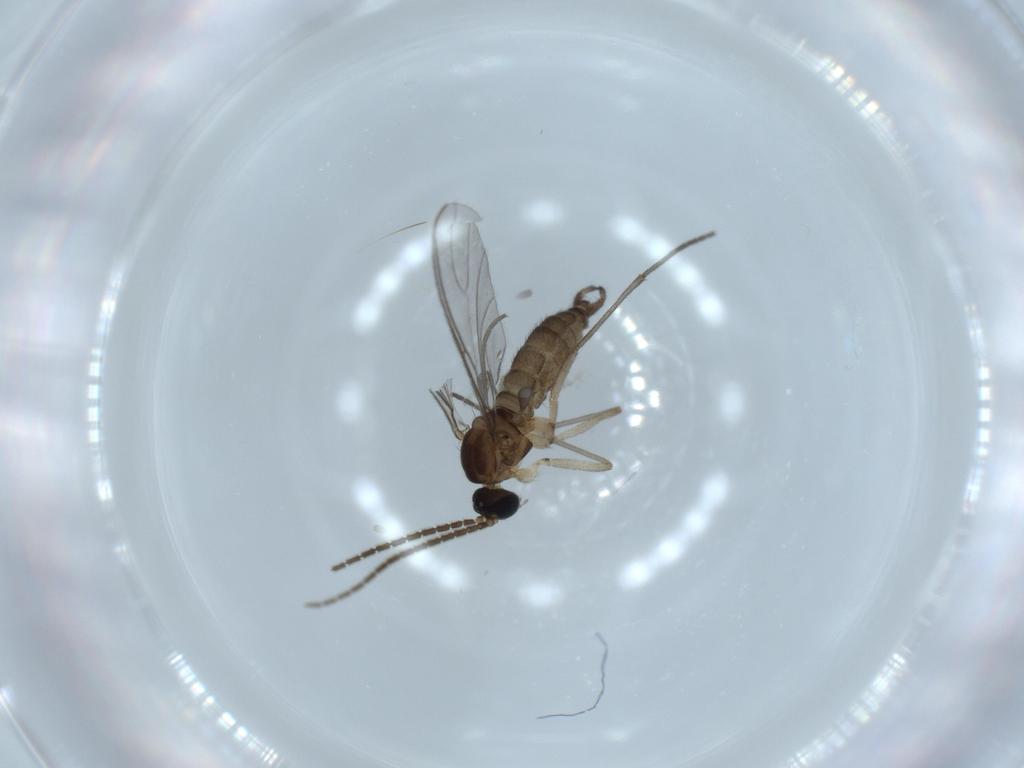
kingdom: Animalia
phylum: Arthropoda
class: Insecta
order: Diptera
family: Sciaridae
